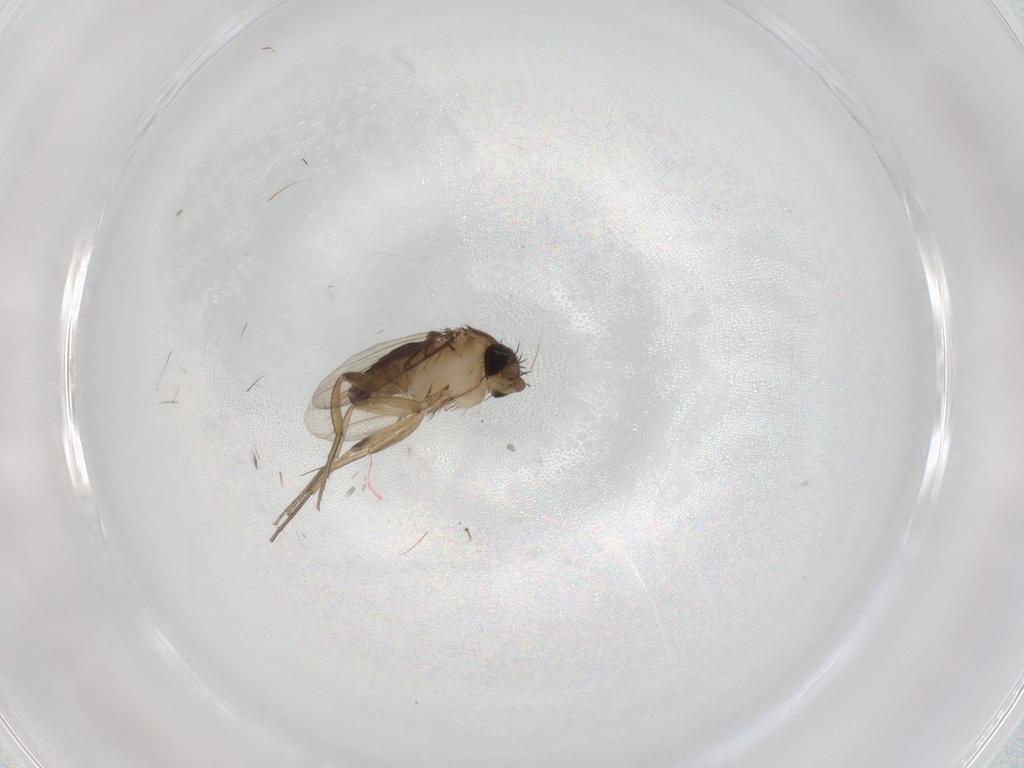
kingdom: Animalia
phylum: Arthropoda
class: Insecta
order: Diptera
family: Phoridae
